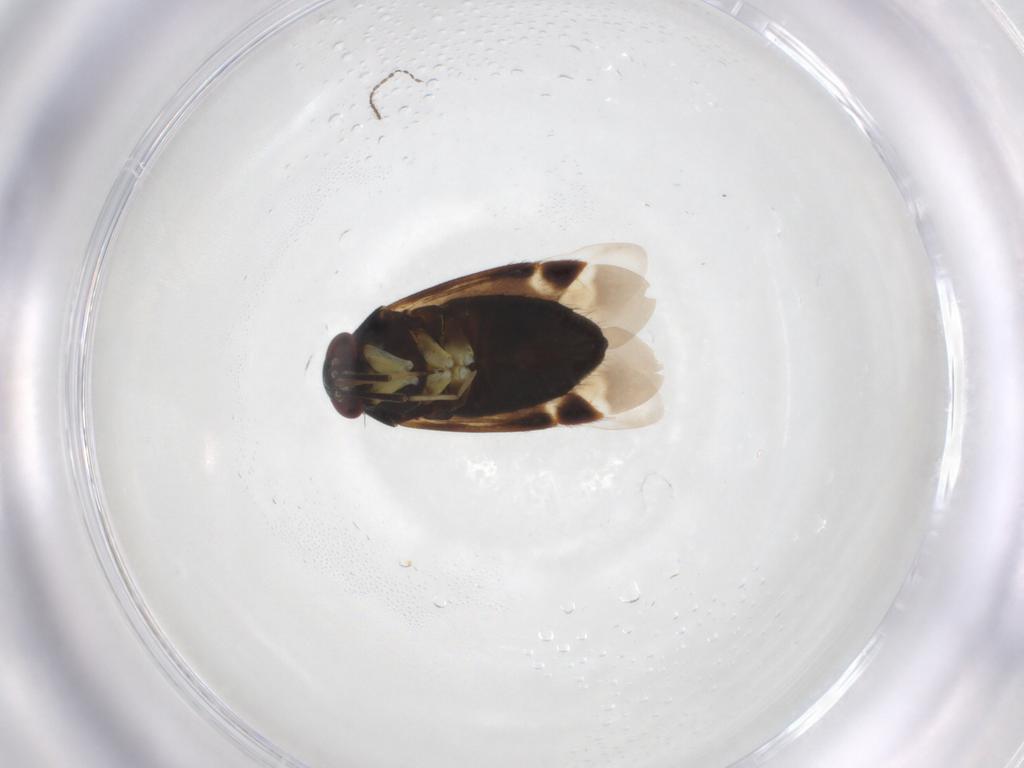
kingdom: Animalia
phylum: Arthropoda
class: Insecta
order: Hemiptera
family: Miridae
